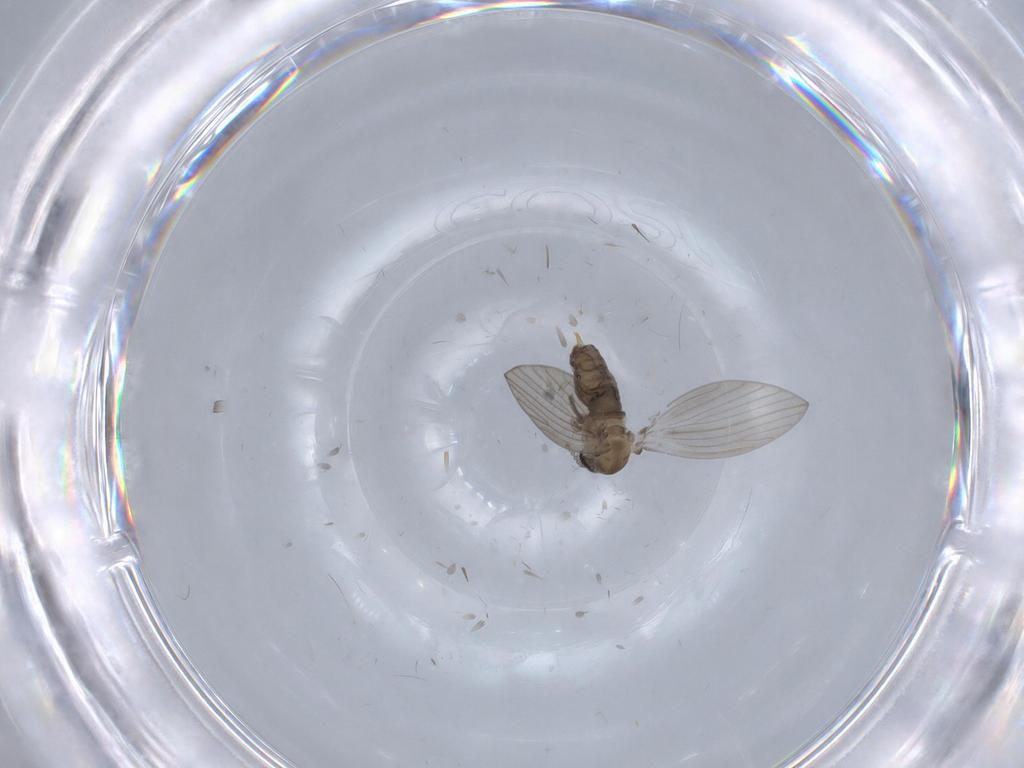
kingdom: Animalia
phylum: Arthropoda
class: Insecta
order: Diptera
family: Psychodidae
